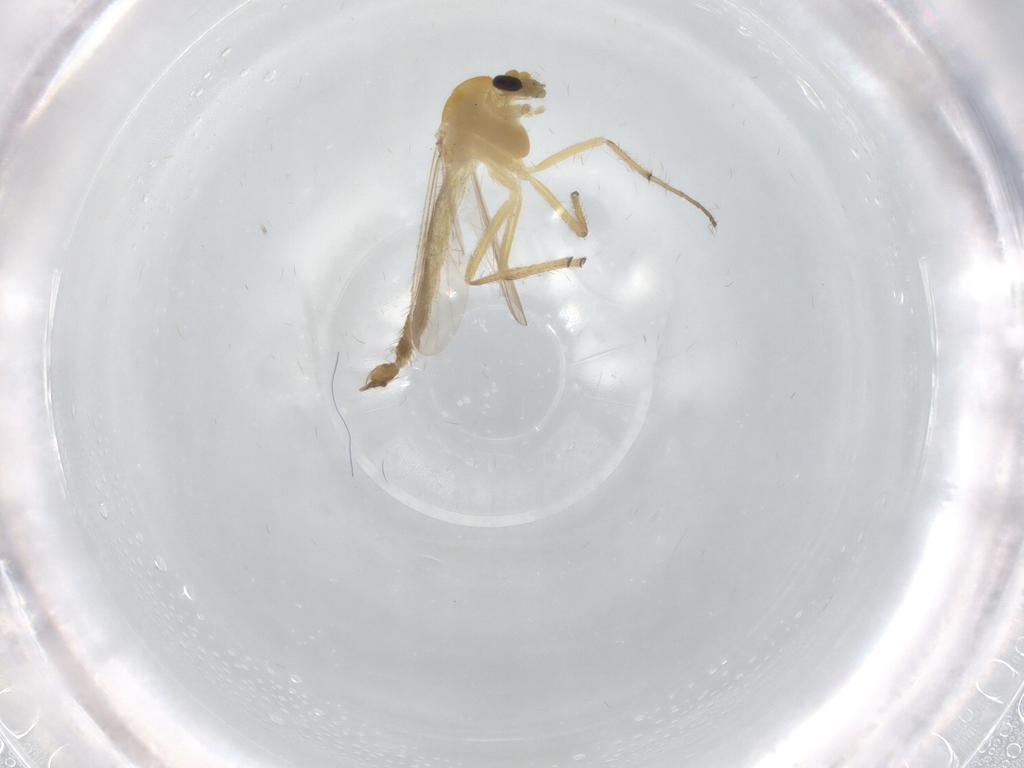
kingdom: Animalia
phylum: Arthropoda
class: Insecta
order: Diptera
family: Chironomidae
